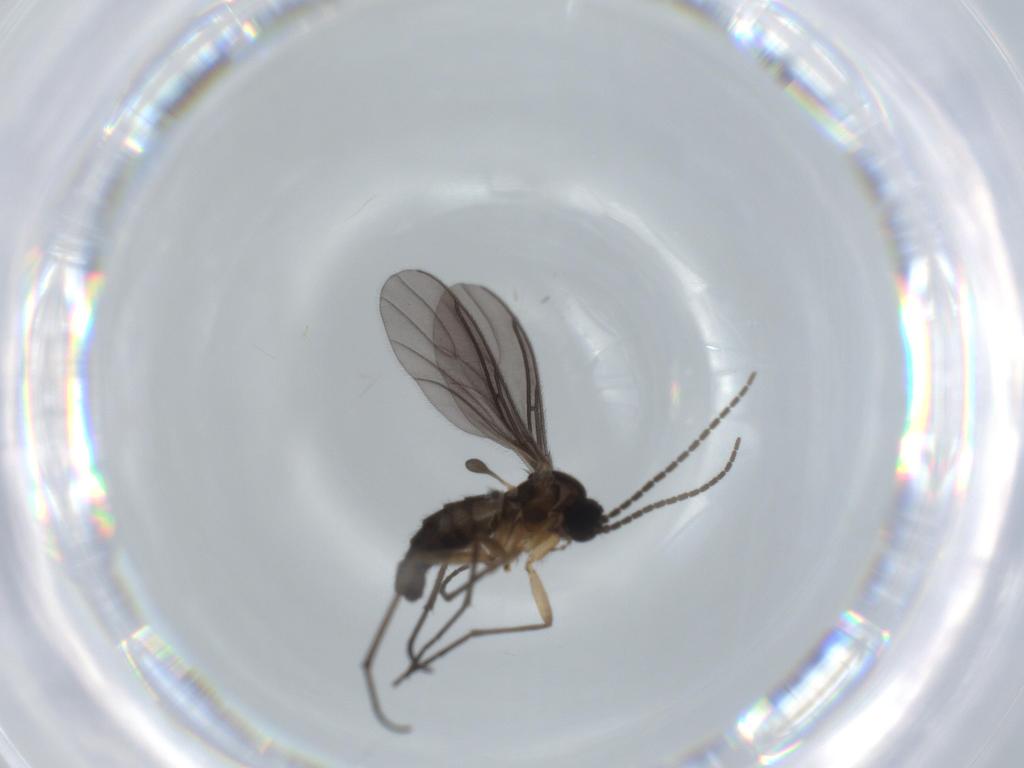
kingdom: Animalia
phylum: Arthropoda
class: Insecta
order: Diptera
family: Sciaridae
